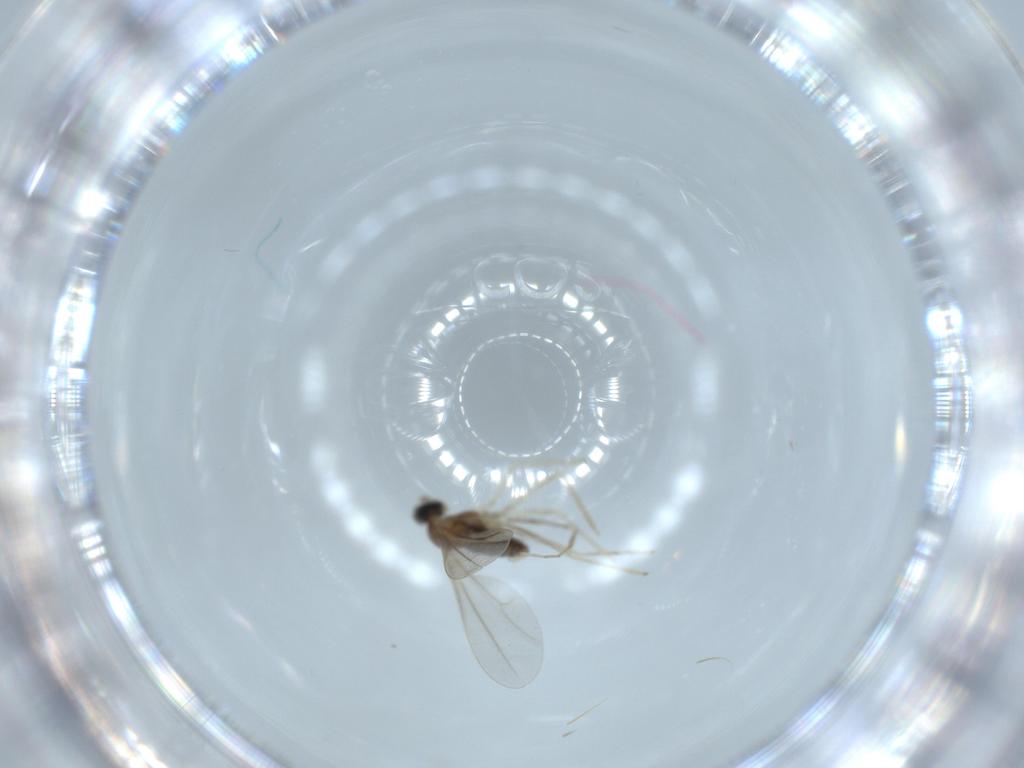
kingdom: Animalia
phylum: Arthropoda
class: Insecta
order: Diptera
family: Cecidomyiidae
